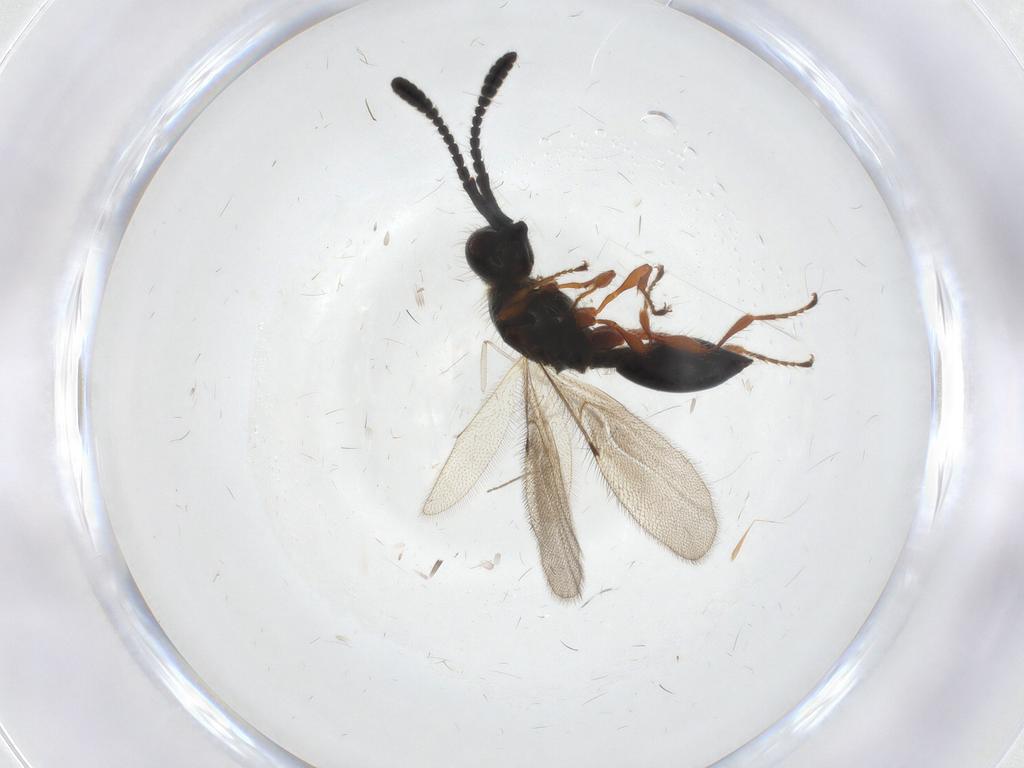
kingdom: Animalia
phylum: Arthropoda
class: Insecta
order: Hymenoptera
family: Diapriidae
